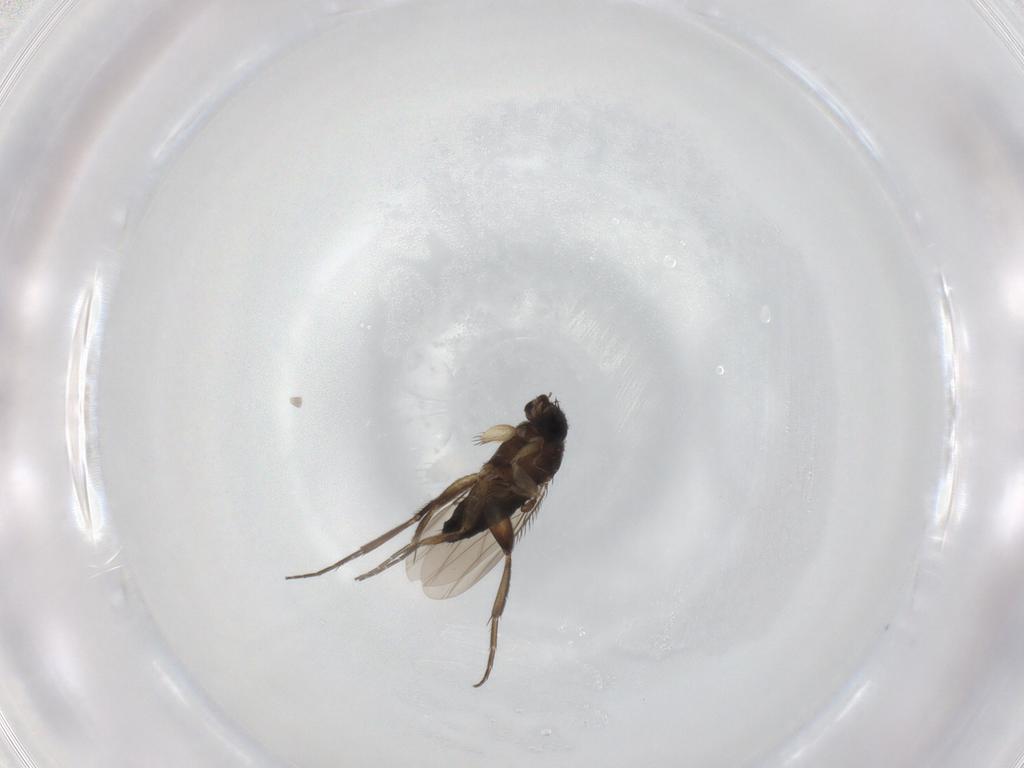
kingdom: Animalia
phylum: Arthropoda
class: Insecta
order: Diptera
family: Phoridae
